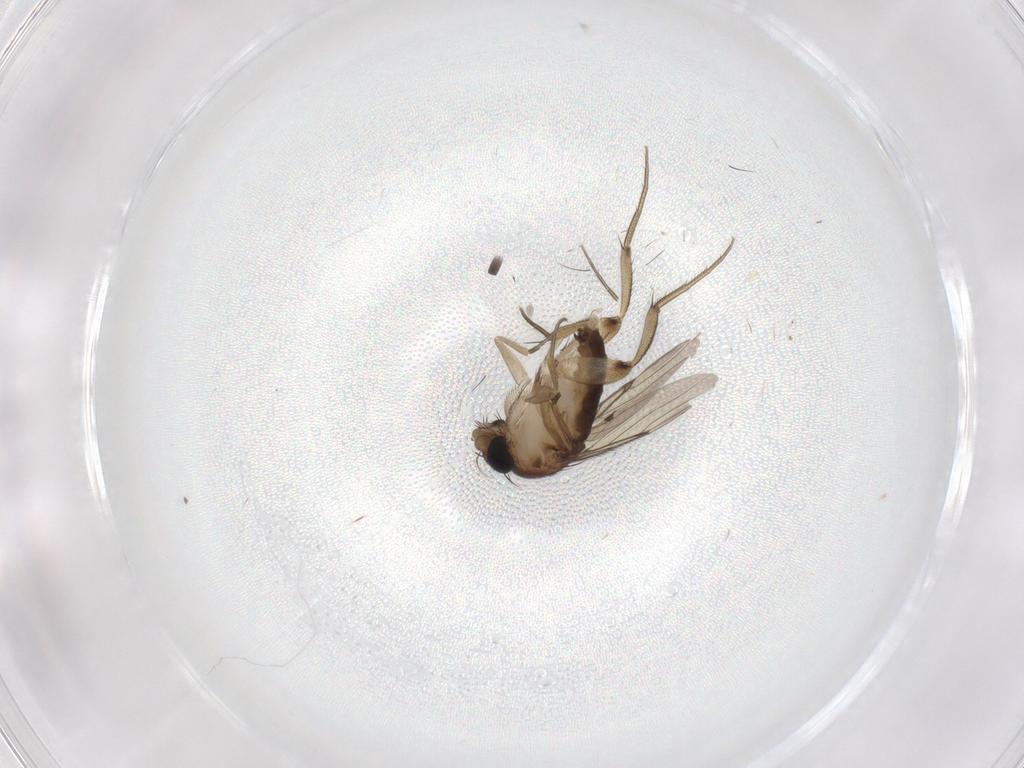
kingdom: Animalia
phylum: Arthropoda
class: Insecta
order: Diptera
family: Phoridae
